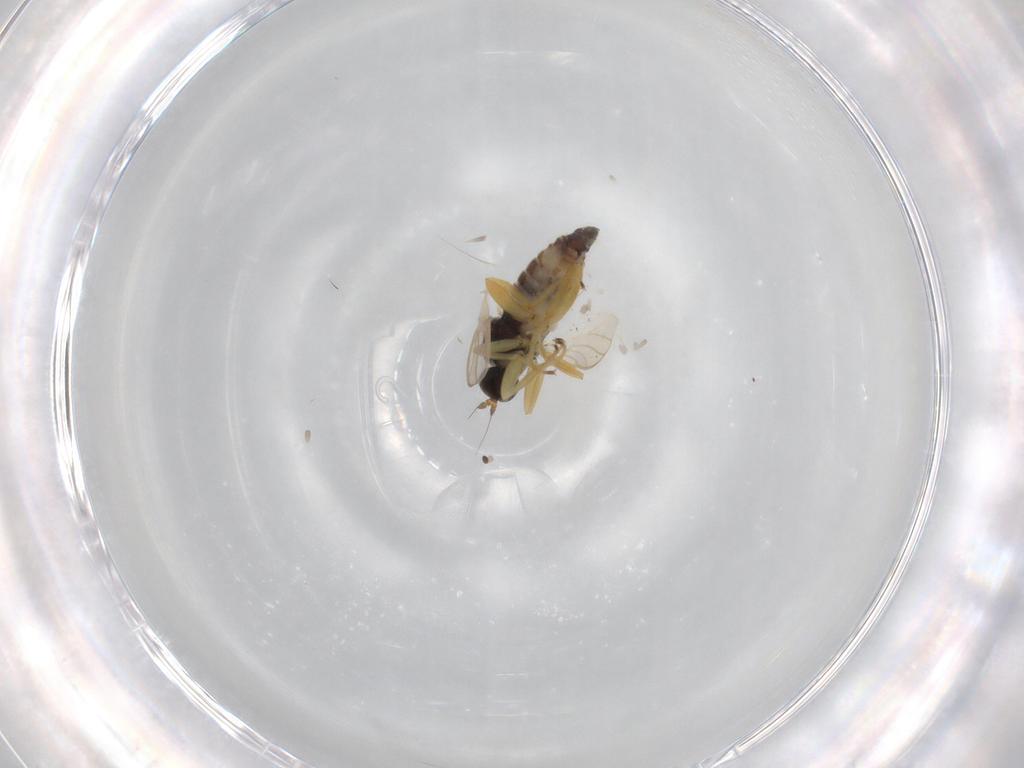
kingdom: Animalia
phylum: Arthropoda
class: Insecta
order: Diptera
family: Hybotidae
